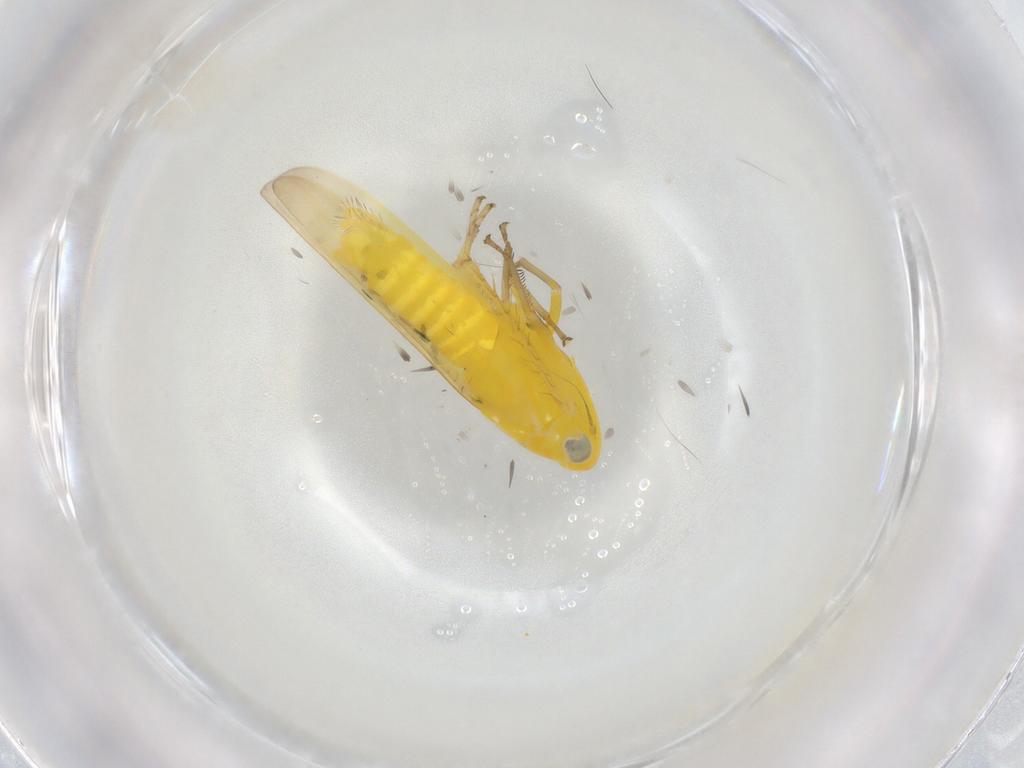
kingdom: Animalia
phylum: Arthropoda
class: Insecta
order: Hemiptera
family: Cicadellidae
